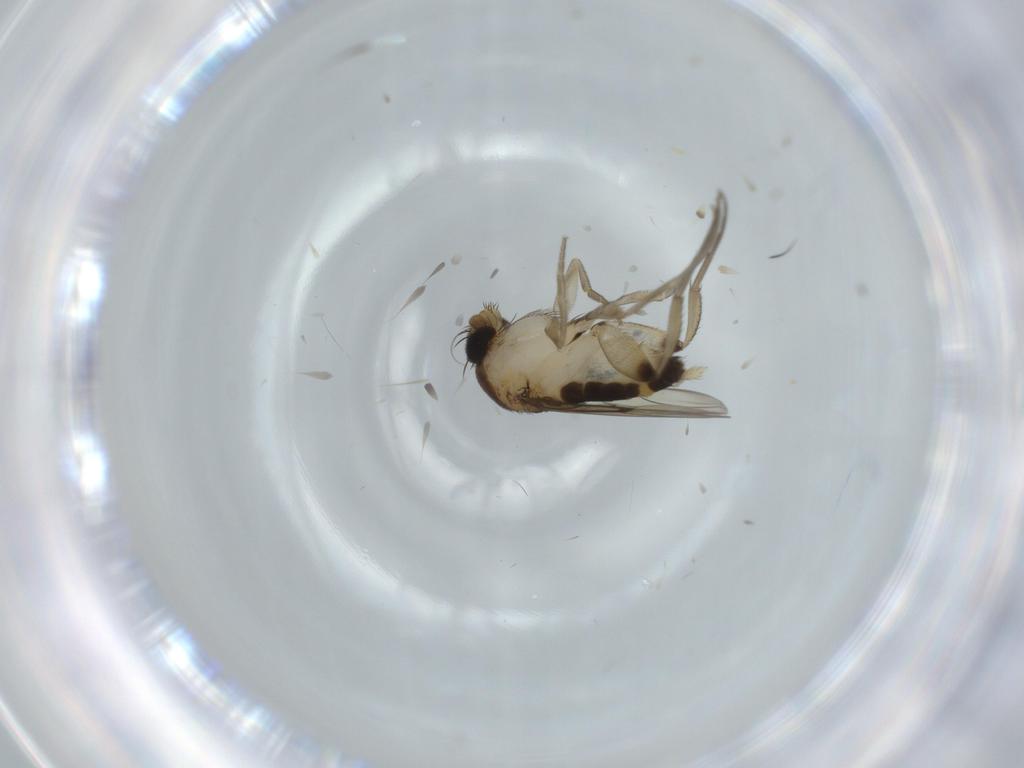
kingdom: Animalia
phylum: Arthropoda
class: Insecta
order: Diptera
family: Phoridae
